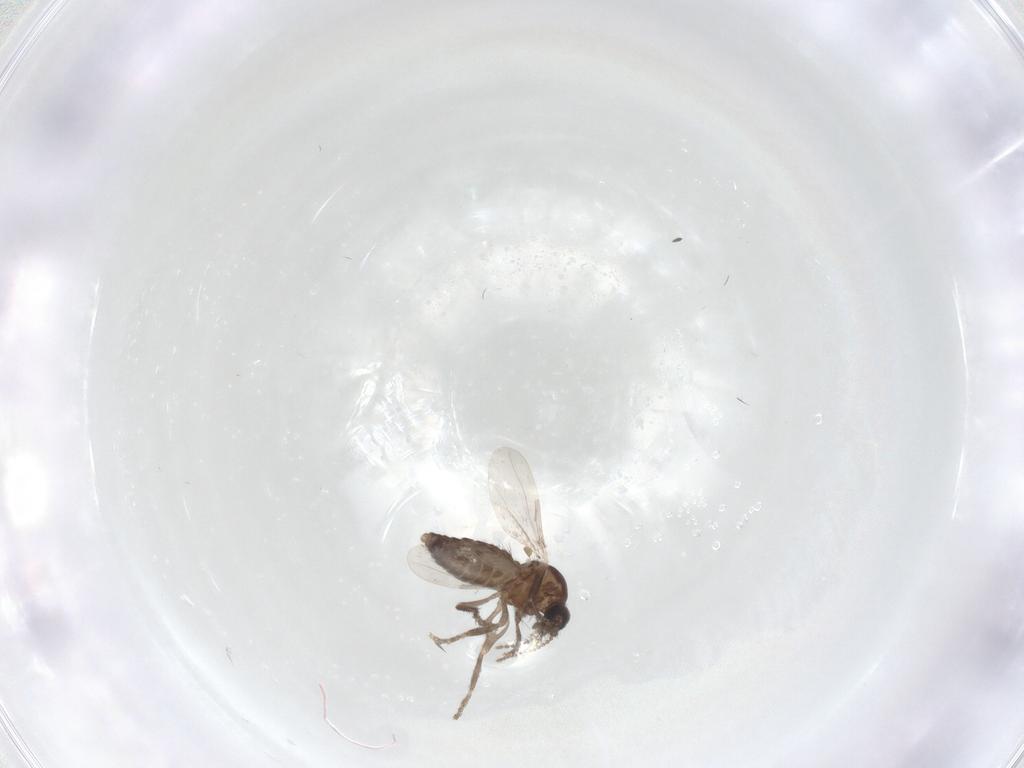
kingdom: Animalia
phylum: Arthropoda
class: Insecta
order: Diptera
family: Ceratopogonidae
